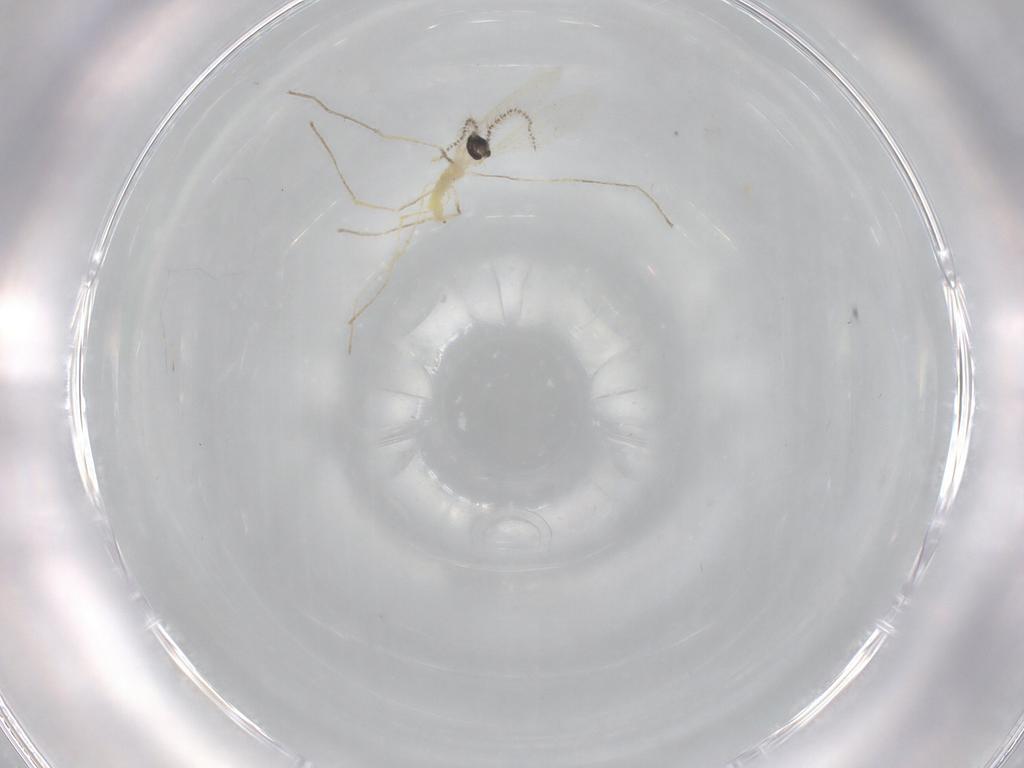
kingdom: Animalia
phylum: Arthropoda
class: Insecta
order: Diptera
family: Cecidomyiidae
